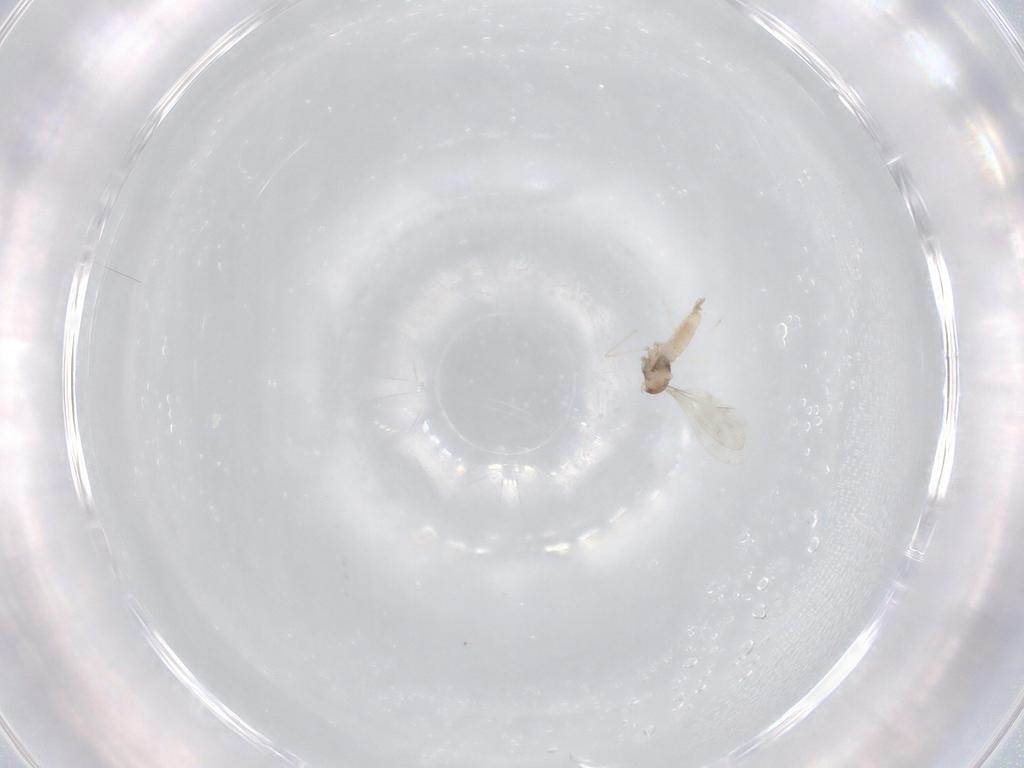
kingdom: Animalia
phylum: Arthropoda
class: Insecta
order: Diptera
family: Cecidomyiidae
